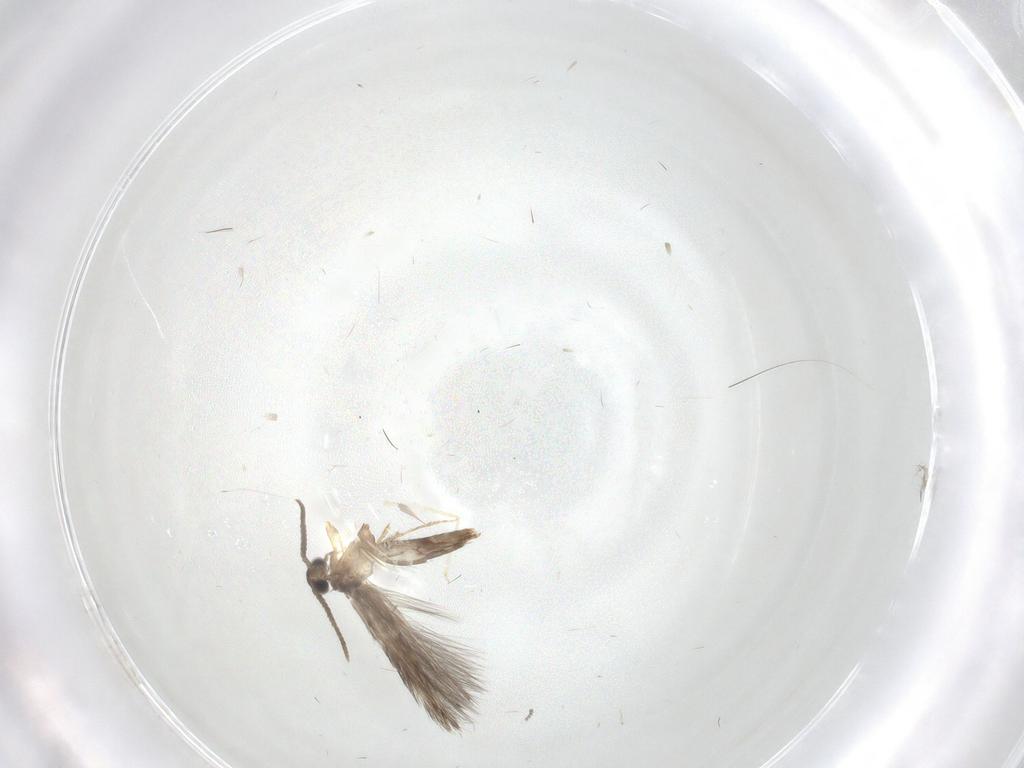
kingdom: Animalia
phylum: Arthropoda
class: Insecta
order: Trichoptera
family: Hydroptilidae
